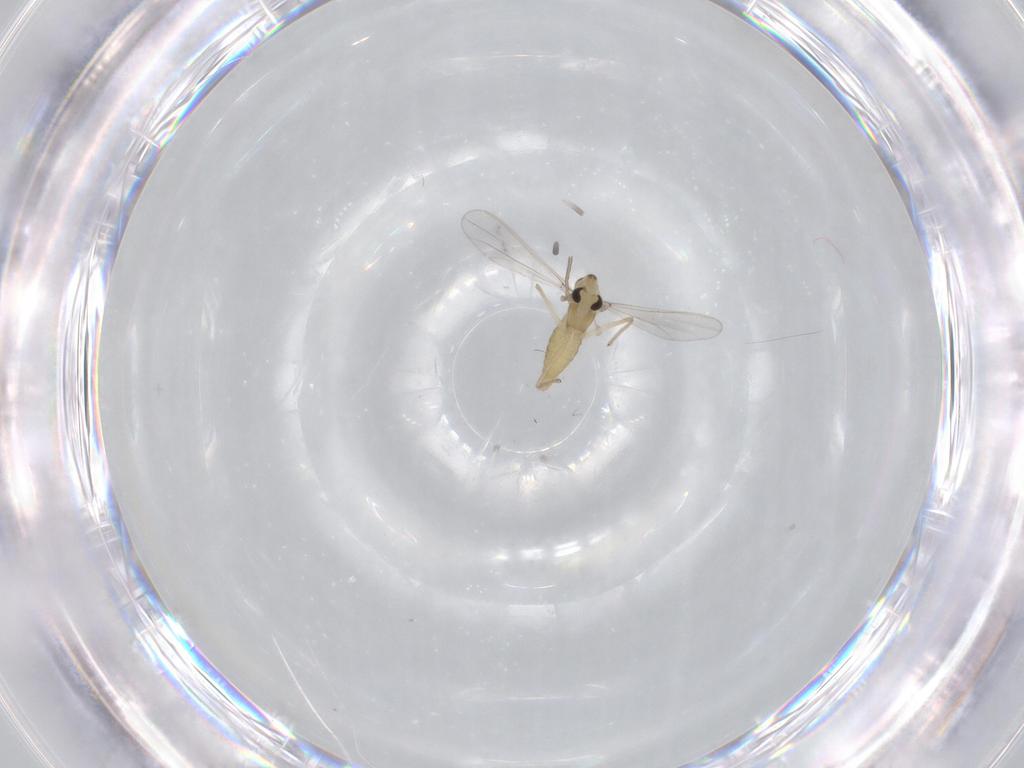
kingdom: Animalia
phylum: Arthropoda
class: Insecta
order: Diptera
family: Chironomidae
